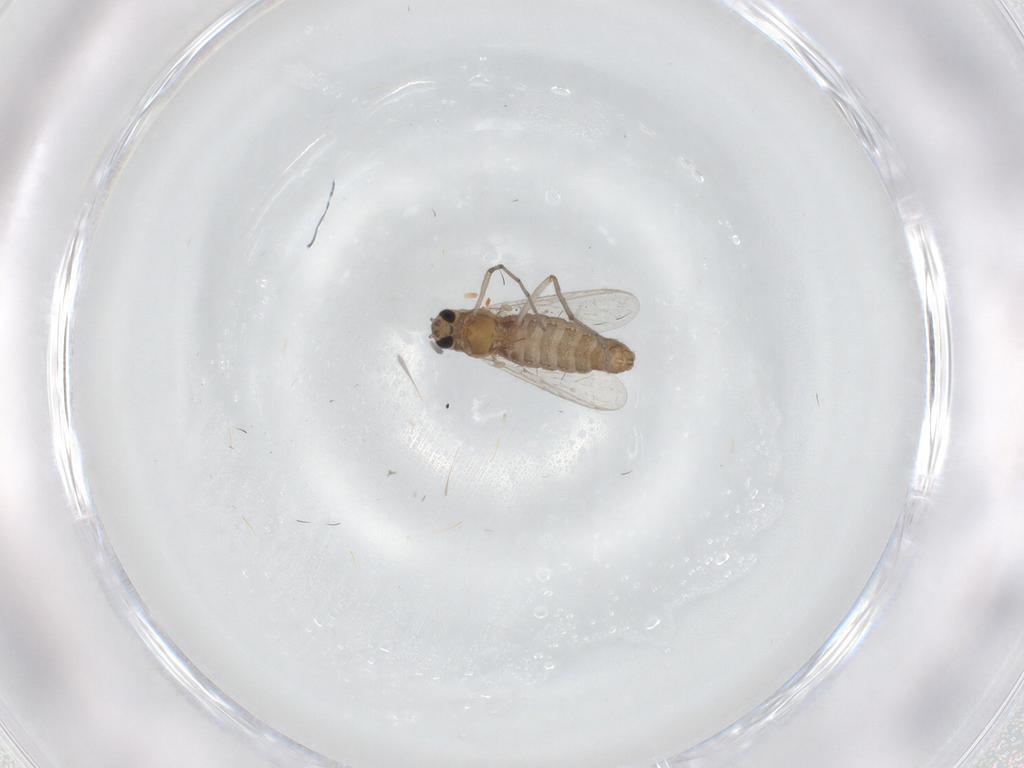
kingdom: Animalia
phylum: Arthropoda
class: Insecta
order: Diptera
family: Chironomidae
